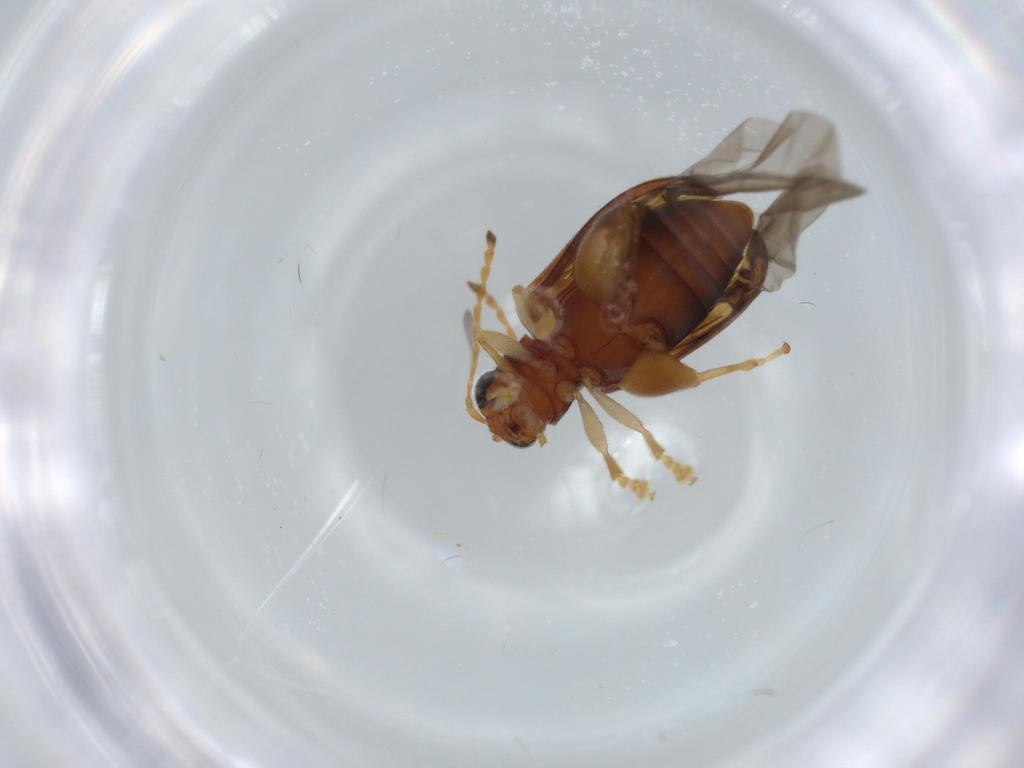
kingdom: Animalia
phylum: Arthropoda
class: Insecta
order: Coleoptera
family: Chrysomelidae
